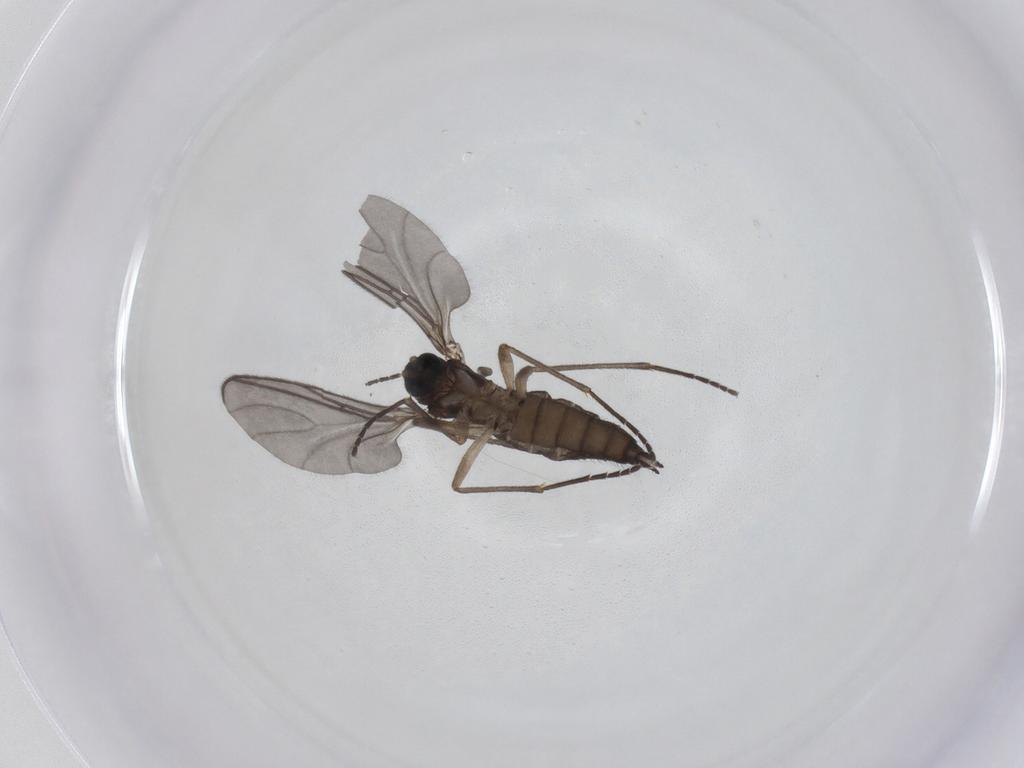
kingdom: Animalia
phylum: Arthropoda
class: Insecta
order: Diptera
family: Sciaridae
